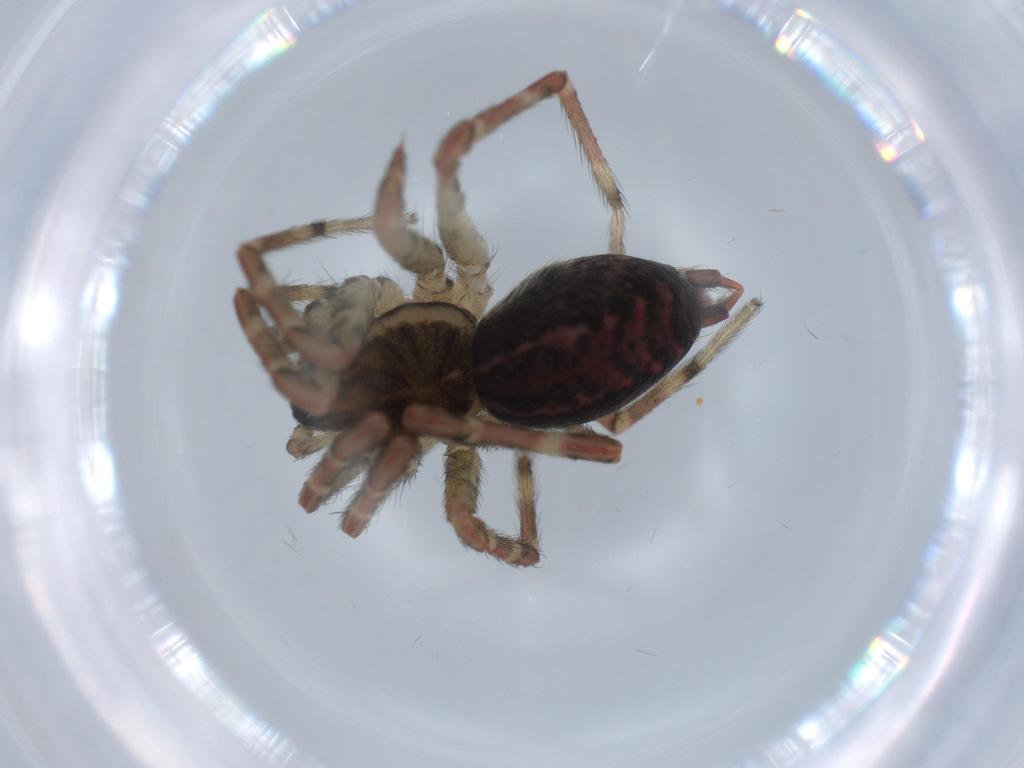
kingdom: Animalia
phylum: Arthropoda
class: Arachnida
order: Araneae
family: Agelenidae
